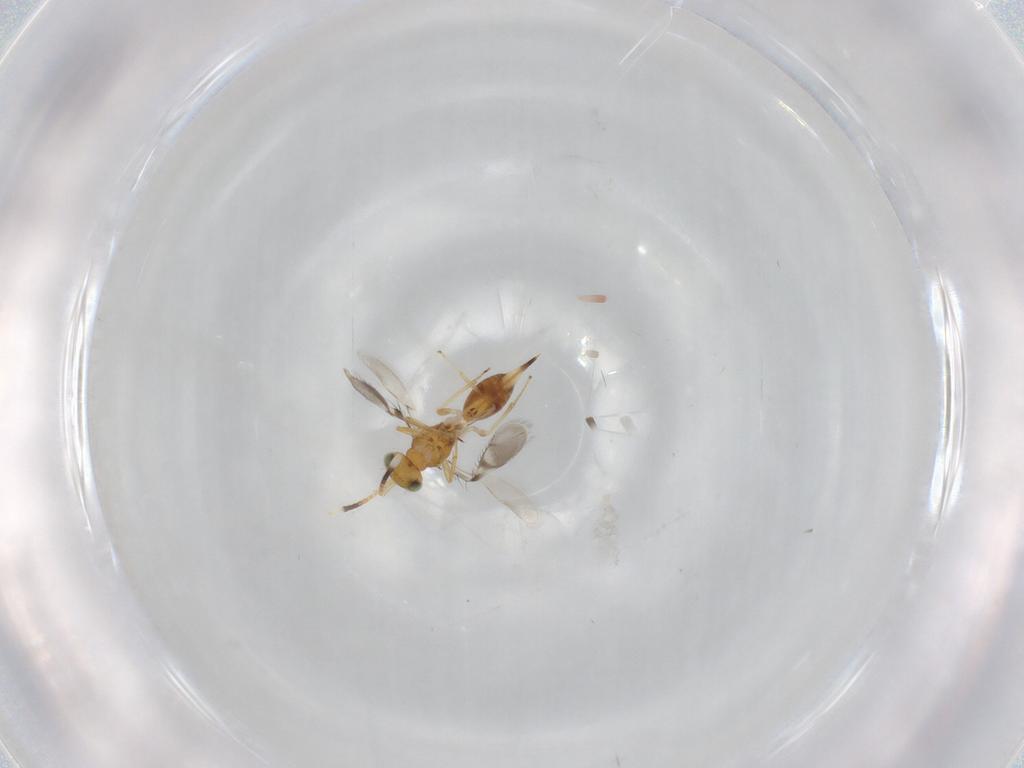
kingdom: Animalia
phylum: Arthropoda
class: Insecta
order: Hymenoptera
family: Diparidae
